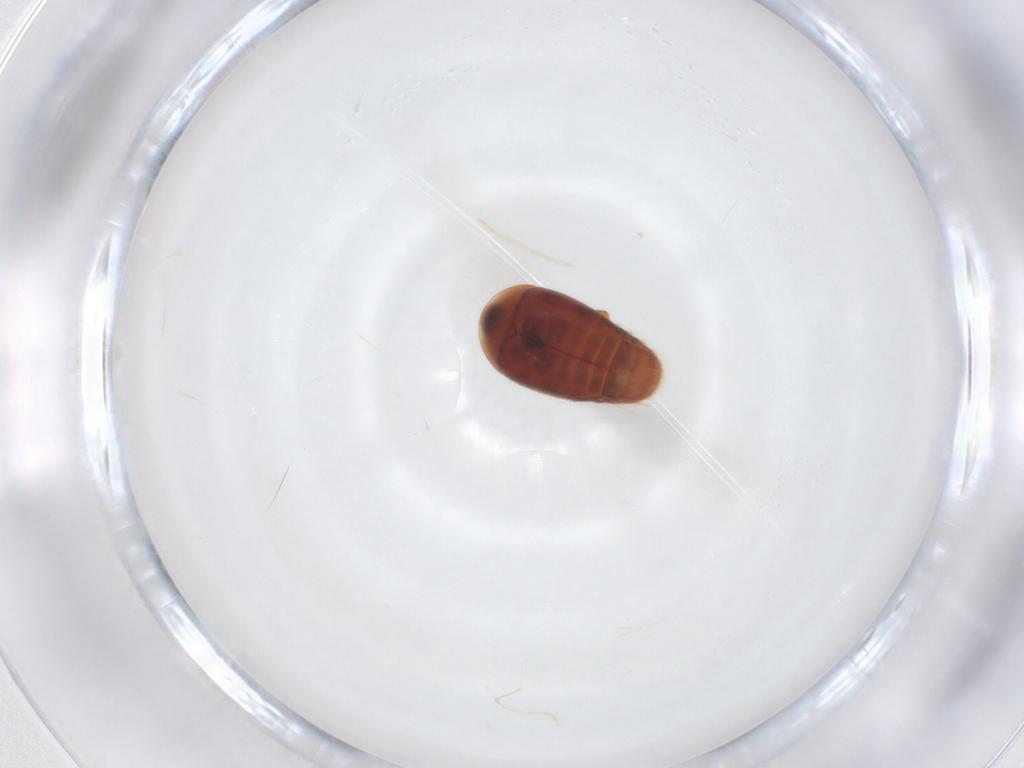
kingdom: Animalia
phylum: Arthropoda
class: Insecta
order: Coleoptera
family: Corylophidae
